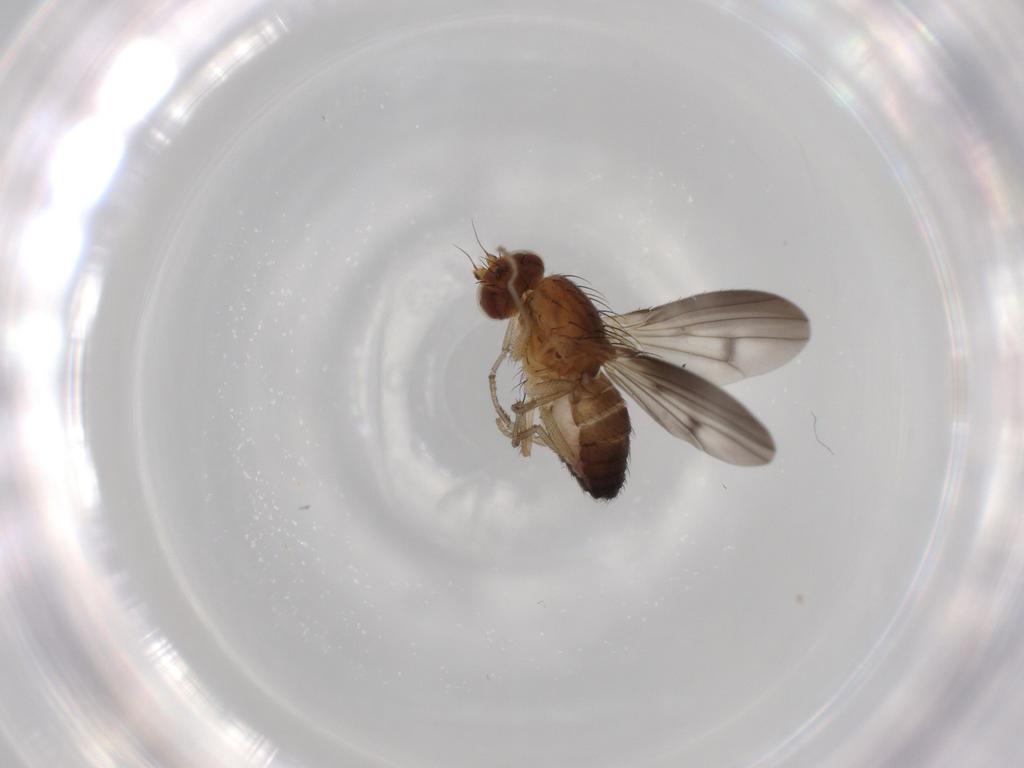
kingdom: Animalia
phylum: Arthropoda
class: Insecta
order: Diptera
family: Heleomyzidae
